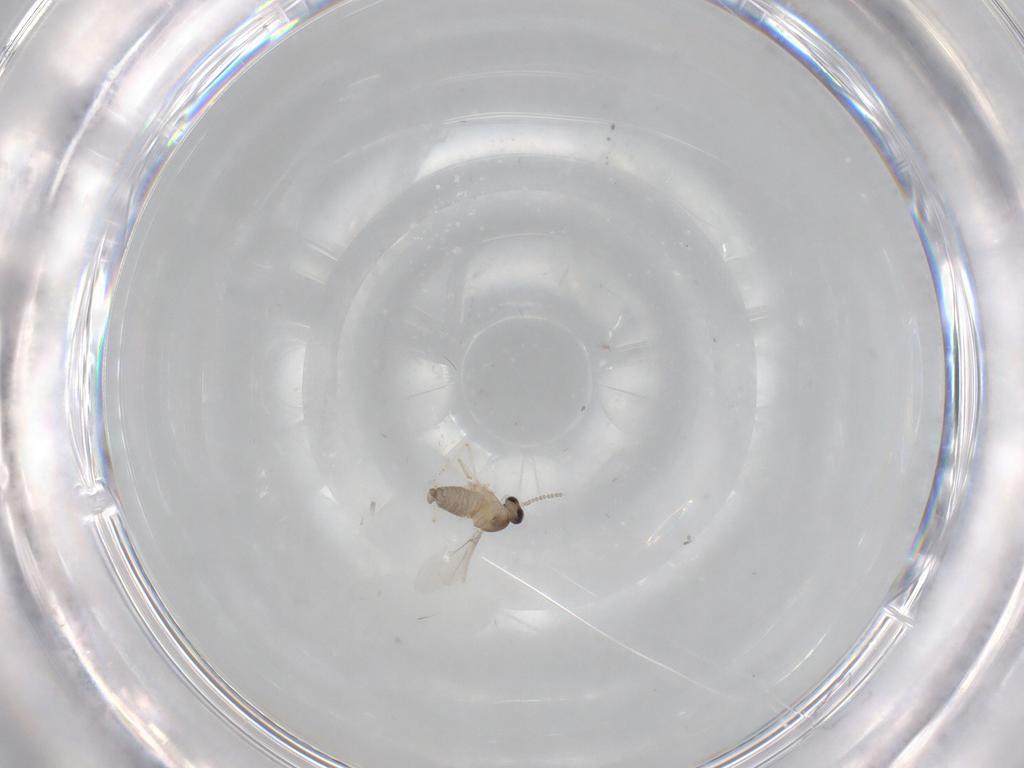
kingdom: Animalia
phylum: Arthropoda
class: Insecta
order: Diptera
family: Cecidomyiidae
